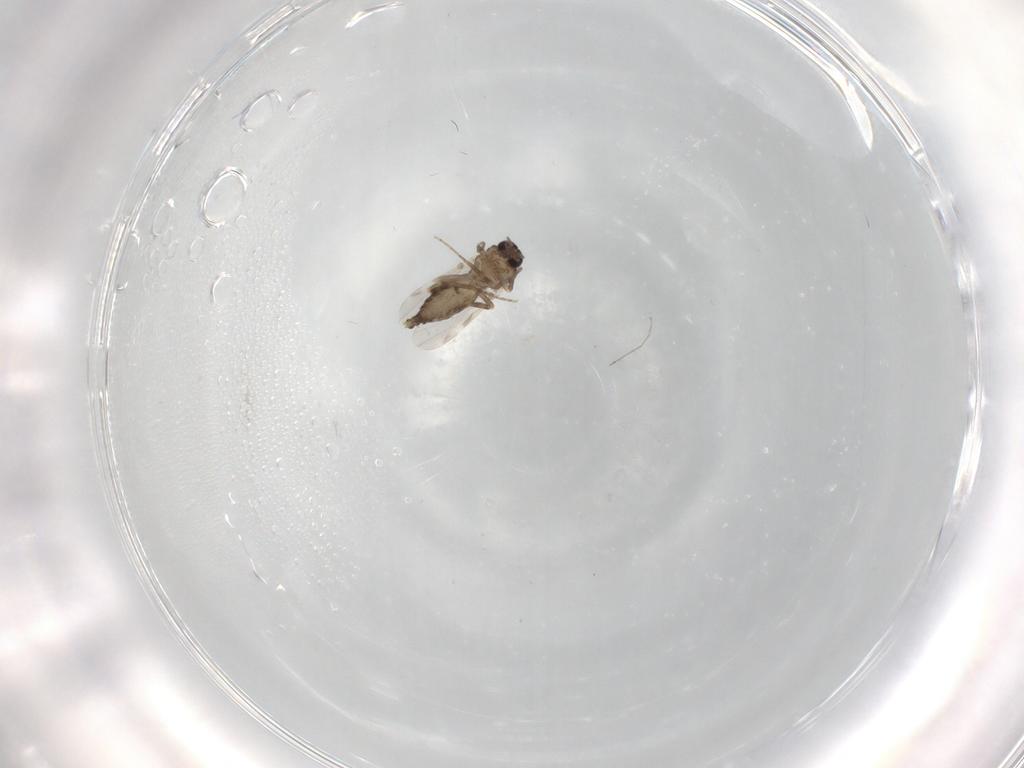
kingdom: Animalia
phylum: Arthropoda
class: Insecta
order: Diptera
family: Ceratopogonidae
